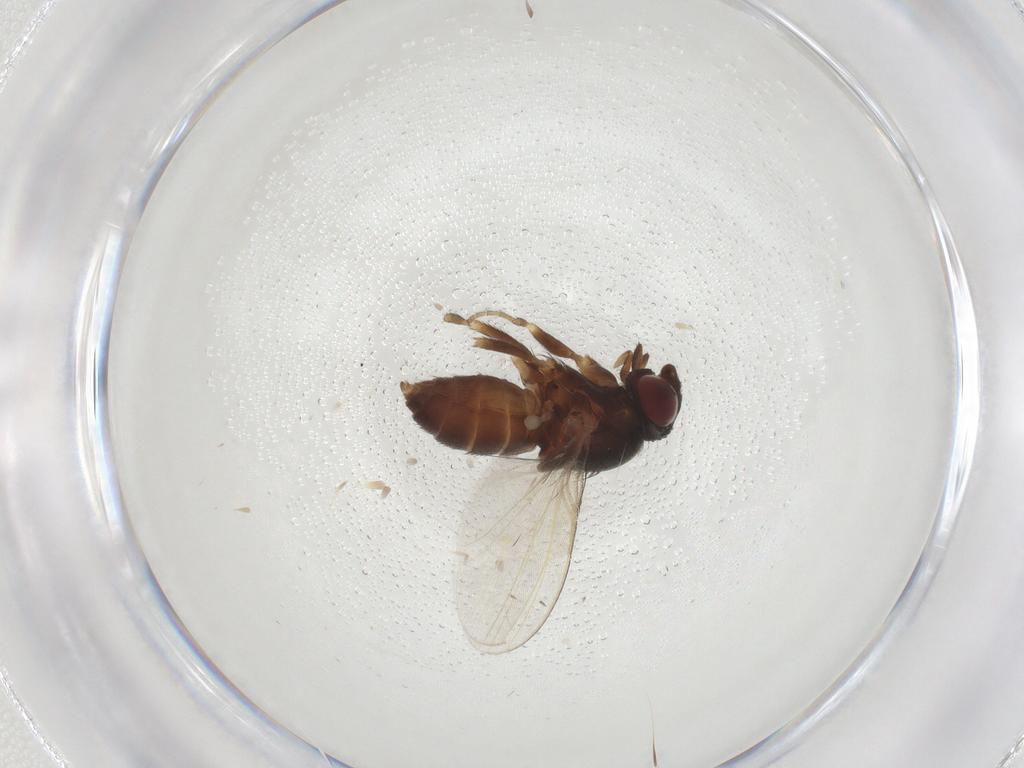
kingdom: Animalia
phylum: Arthropoda
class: Insecta
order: Diptera
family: Milichiidae
